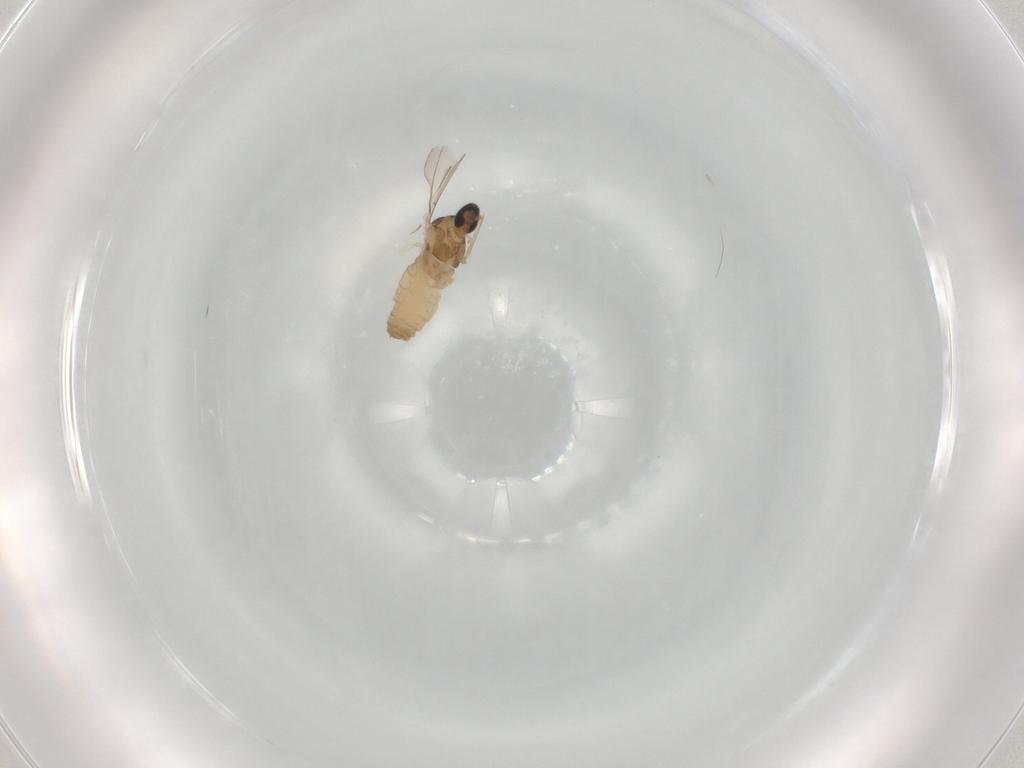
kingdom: Animalia
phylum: Arthropoda
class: Insecta
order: Diptera
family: Cecidomyiidae
